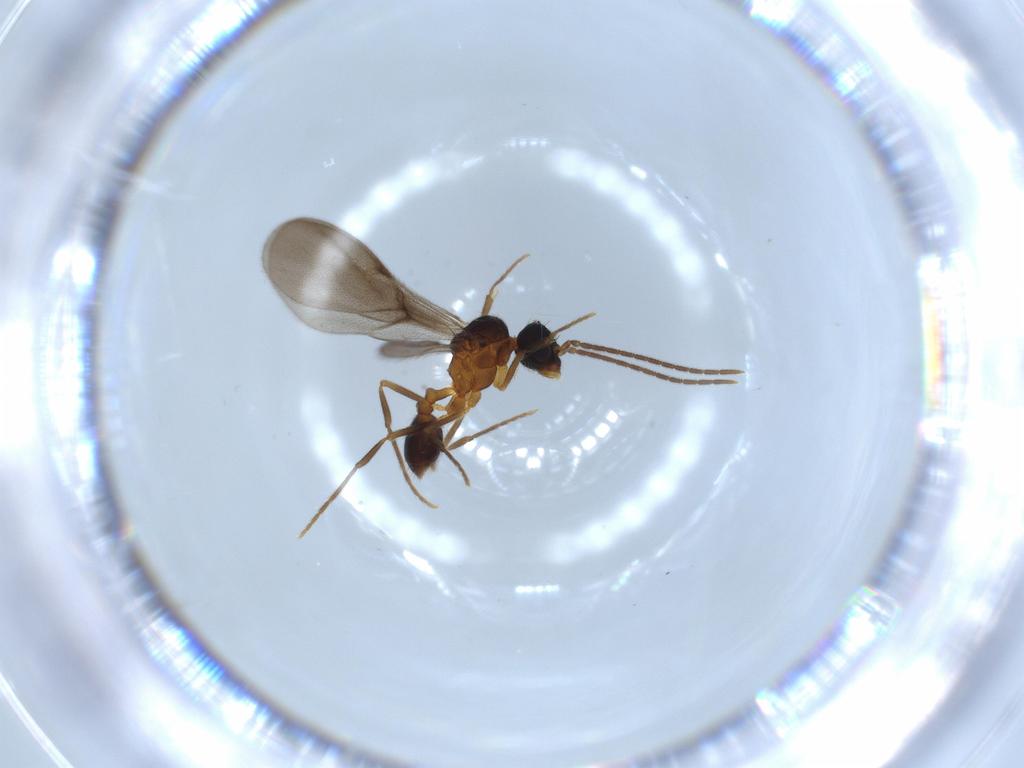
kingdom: Animalia
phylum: Arthropoda
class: Insecta
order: Hymenoptera
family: Formicidae
